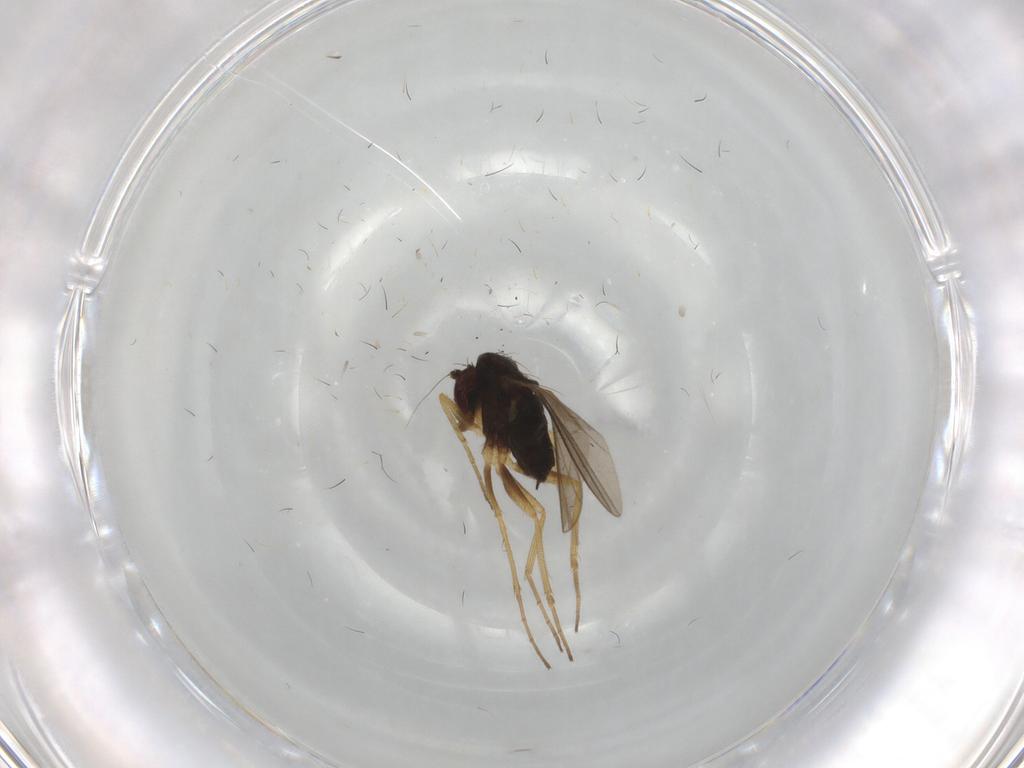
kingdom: Animalia
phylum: Arthropoda
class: Insecta
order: Diptera
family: Dolichopodidae
